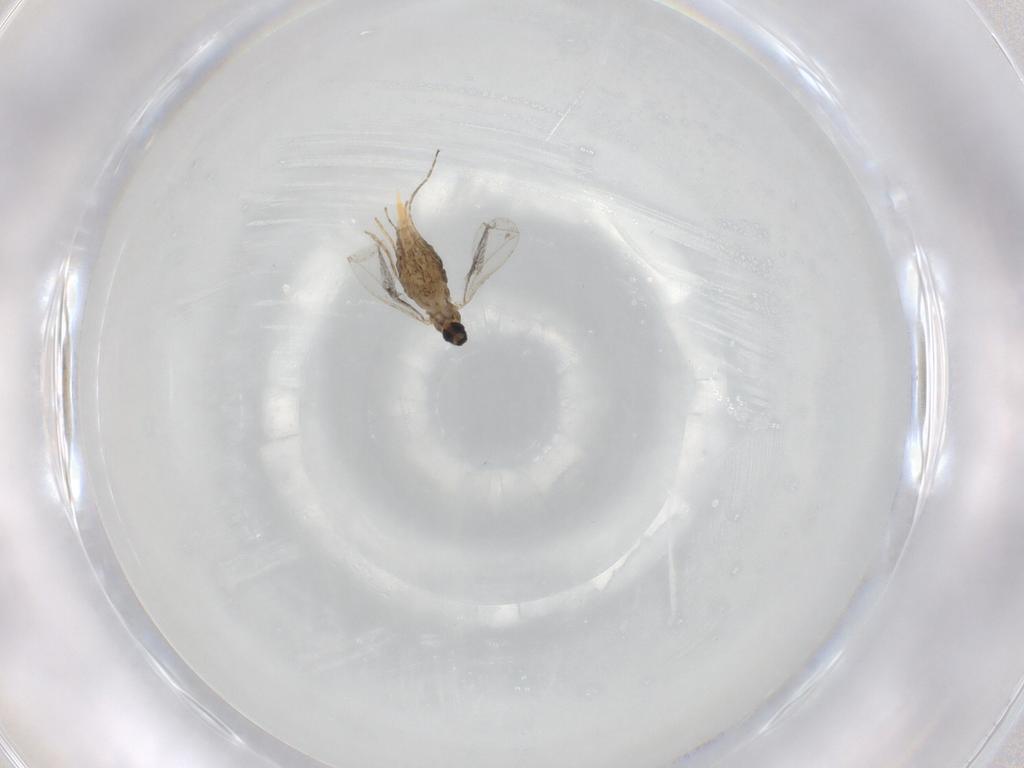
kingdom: Animalia
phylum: Arthropoda
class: Insecta
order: Diptera
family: Cecidomyiidae
